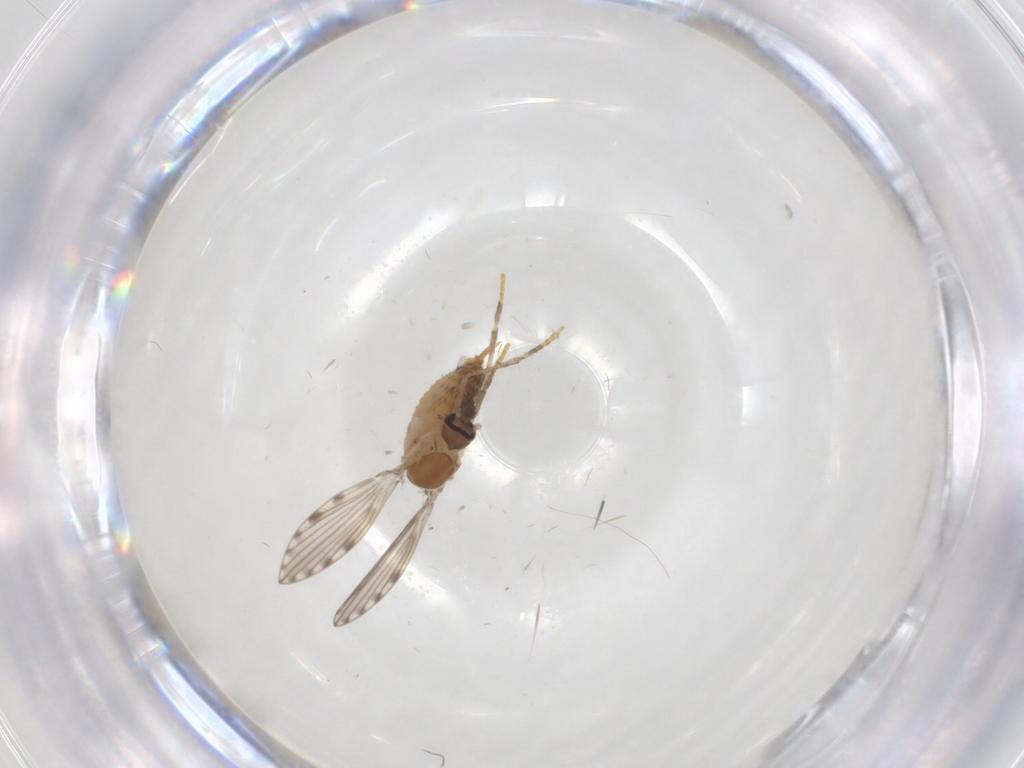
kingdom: Animalia
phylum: Arthropoda
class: Insecta
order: Diptera
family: Psychodidae
